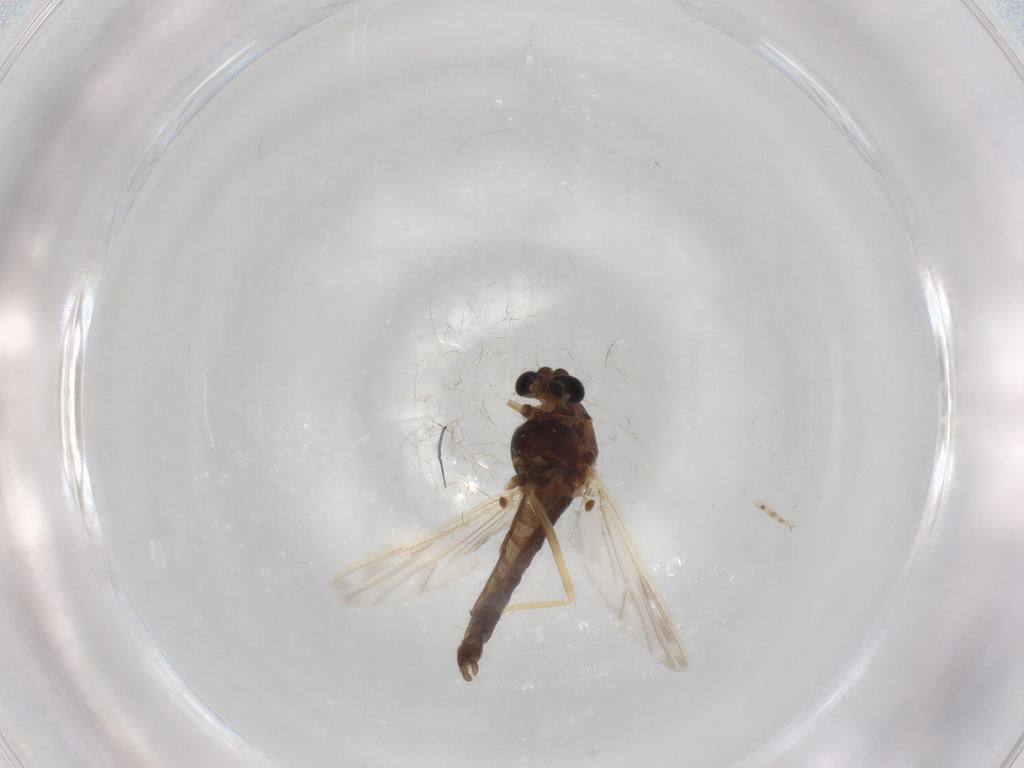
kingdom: Animalia
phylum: Arthropoda
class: Insecta
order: Diptera
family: Chironomidae
